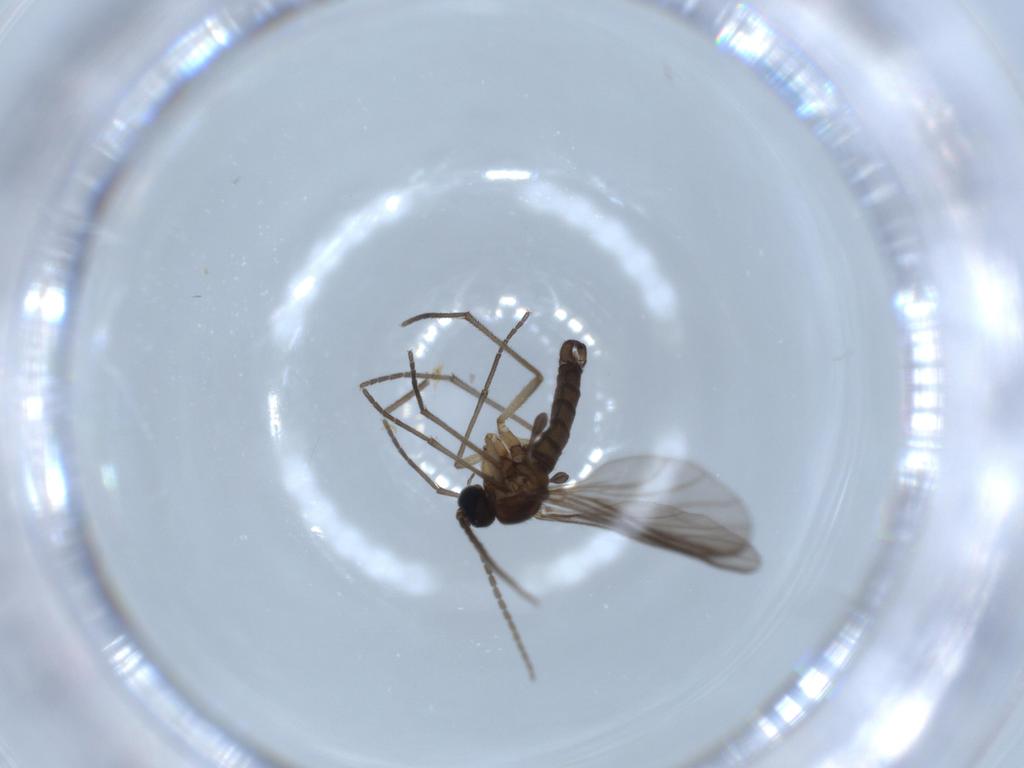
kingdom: Animalia
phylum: Arthropoda
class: Insecta
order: Diptera
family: Sciaridae
